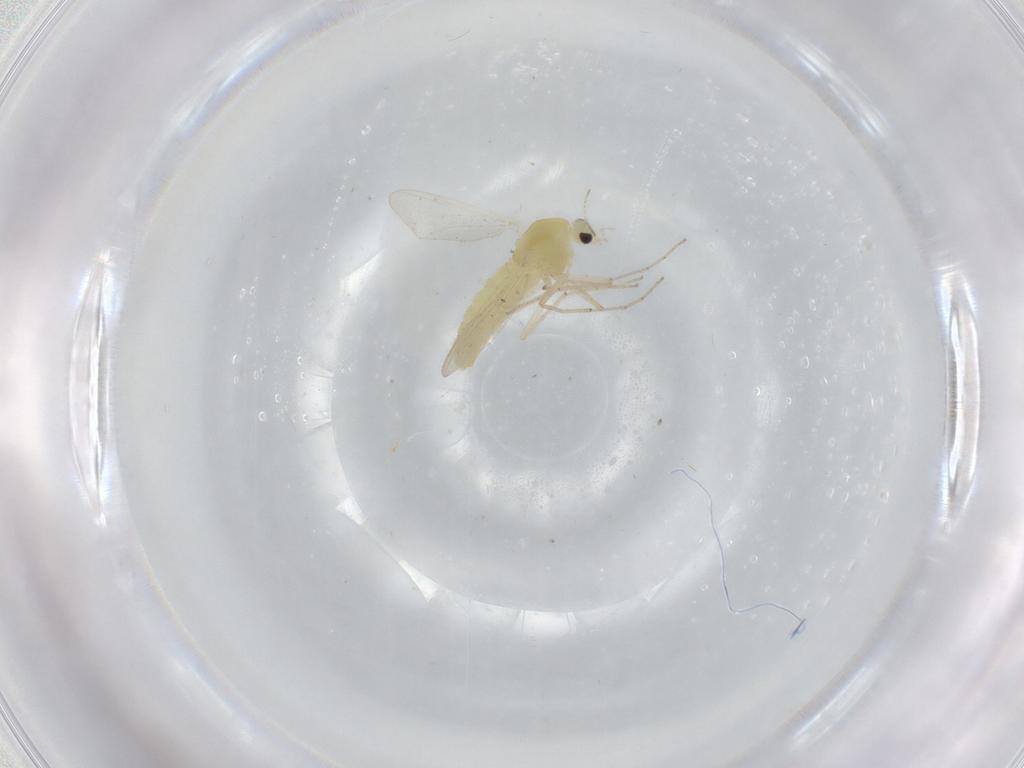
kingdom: Animalia
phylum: Arthropoda
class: Insecta
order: Diptera
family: Chironomidae
